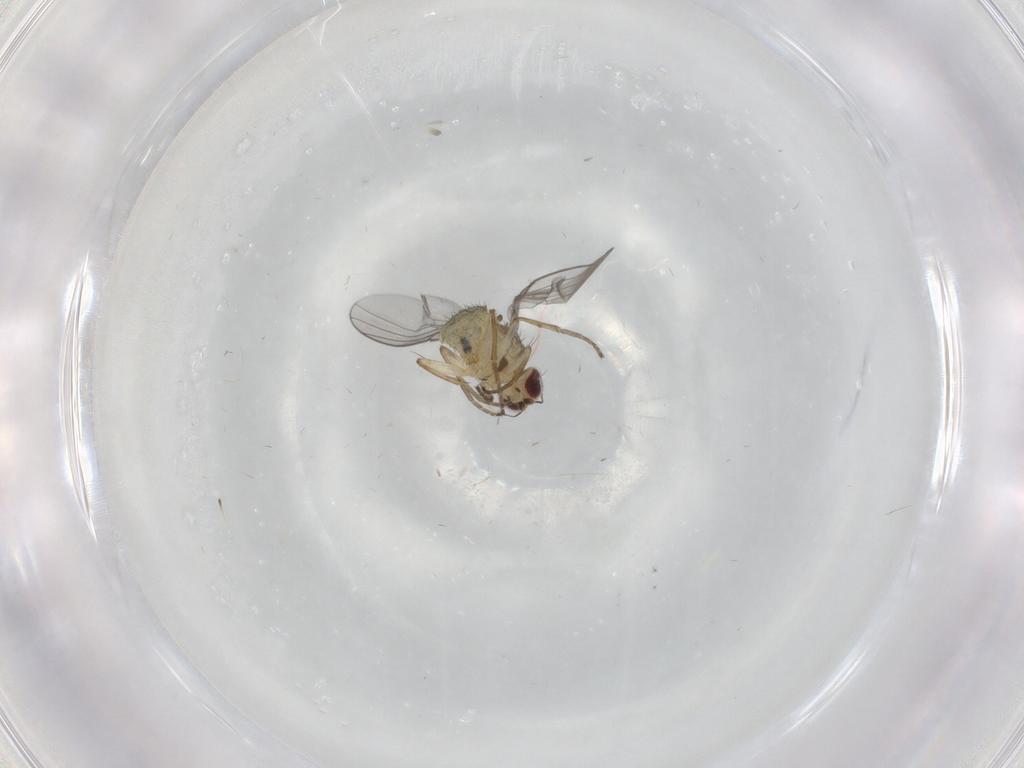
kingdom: Animalia
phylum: Arthropoda
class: Insecta
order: Diptera
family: Agromyzidae
